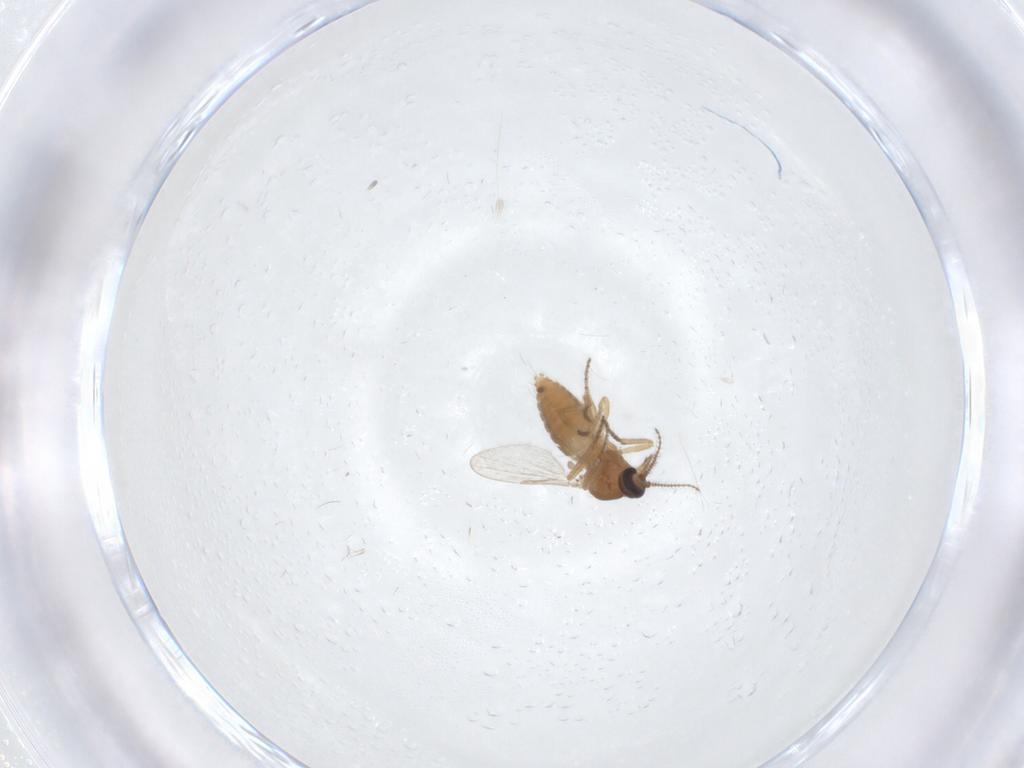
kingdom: Animalia
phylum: Arthropoda
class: Insecta
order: Diptera
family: Ceratopogonidae
